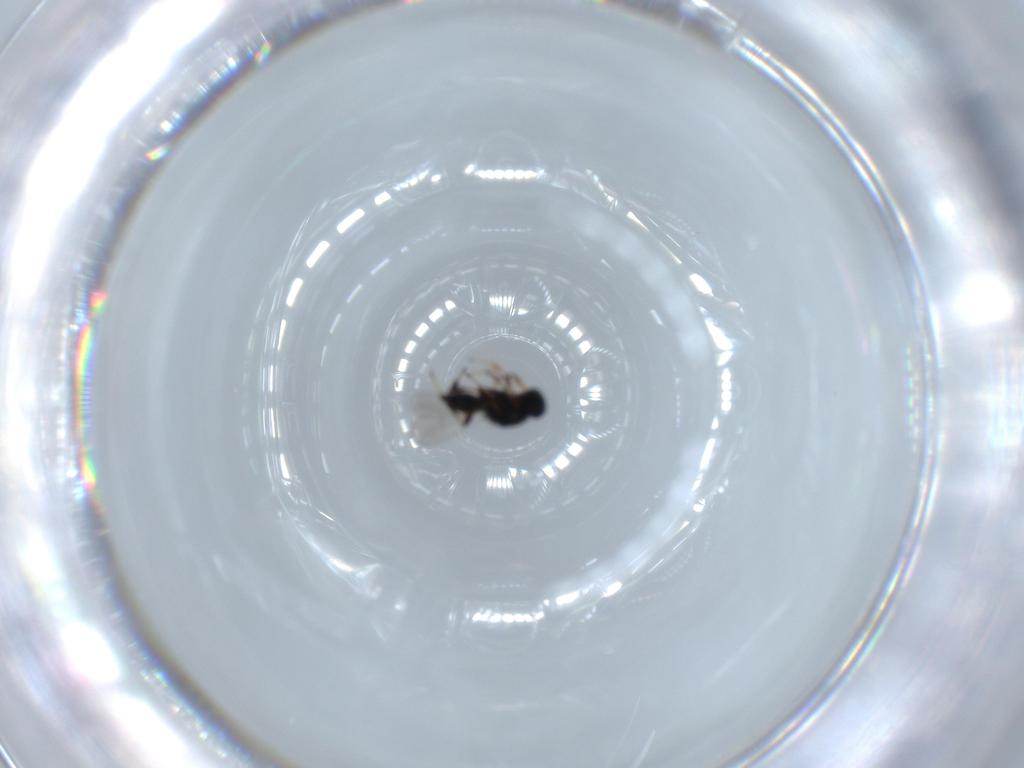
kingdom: Animalia
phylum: Arthropoda
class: Insecta
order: Hymenoptera
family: Platygastridae
